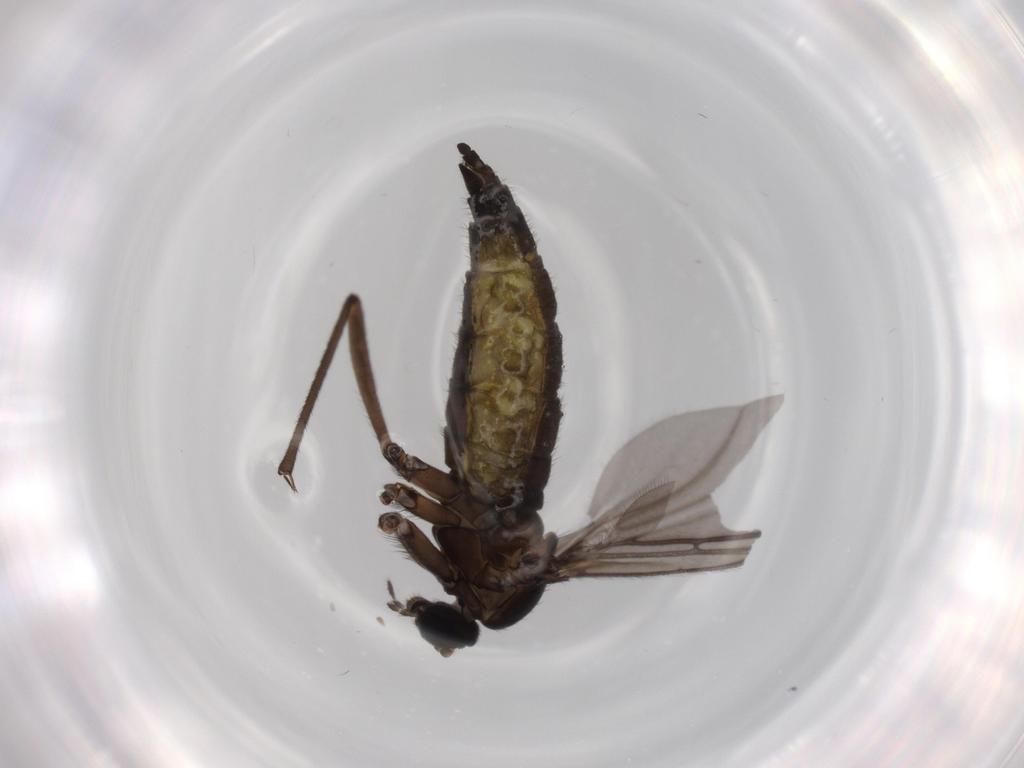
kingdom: Animalia
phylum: Arthropoda
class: Insecta
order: Diptera
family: Sciaridae
